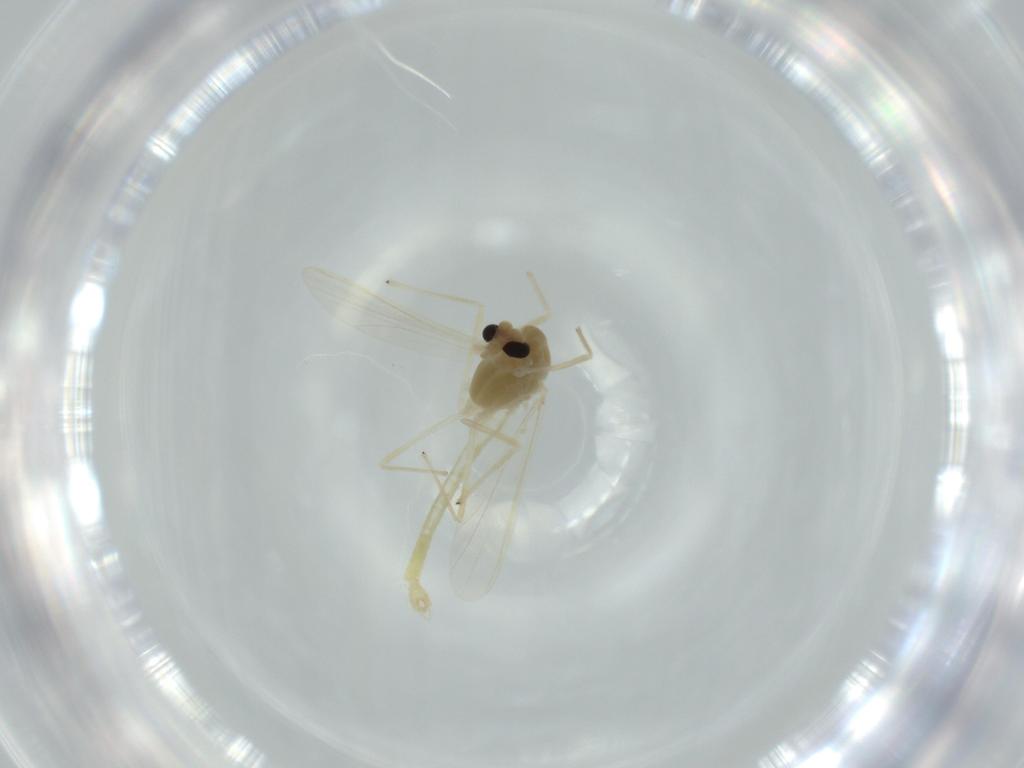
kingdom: Animalia
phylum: Arthropoda
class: Insecta
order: Diptera
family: Chironomidae
